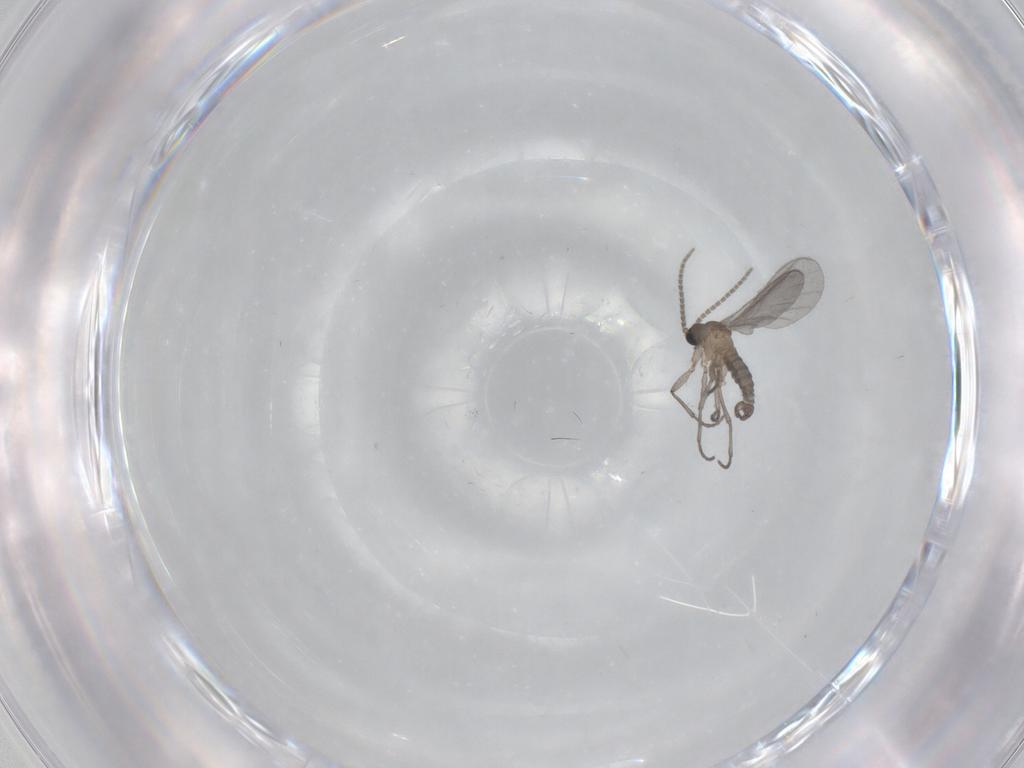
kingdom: Animalia
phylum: Arthropoda
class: Insecta
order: Diptera
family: Sciaridae
